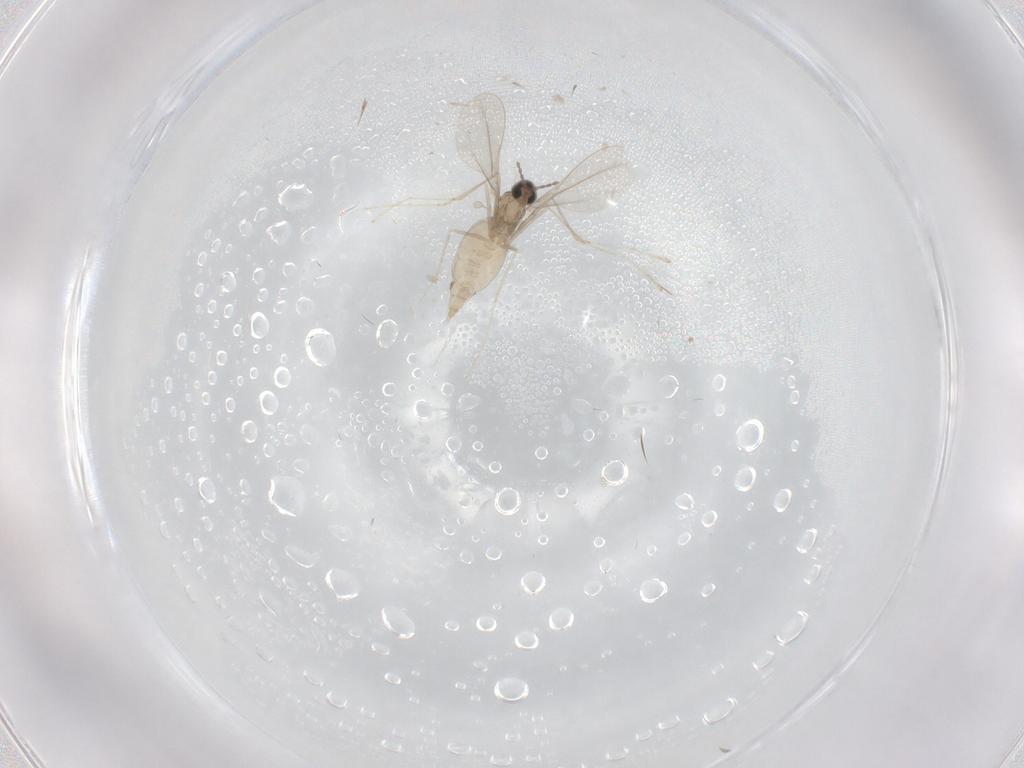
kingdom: Animalia
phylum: Arthropoda
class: Insecta
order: Diptera
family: Cecidomyiidae
